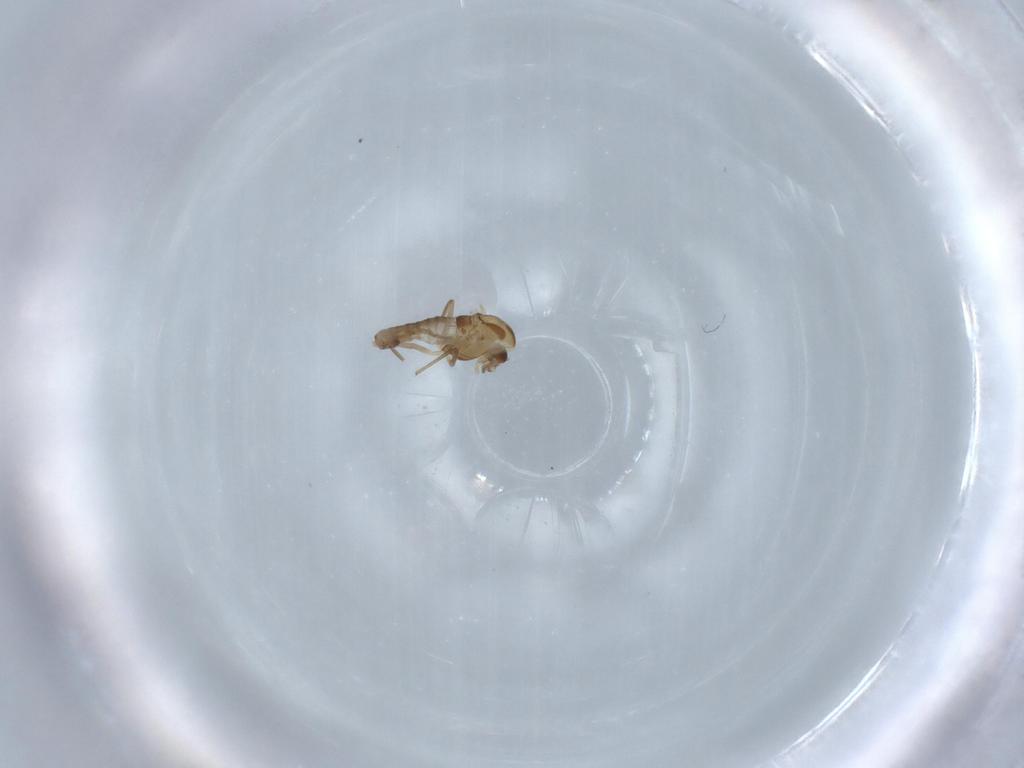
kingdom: Animalia
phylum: Arthropoda
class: Insecta
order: Diptera
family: Chironomidae
